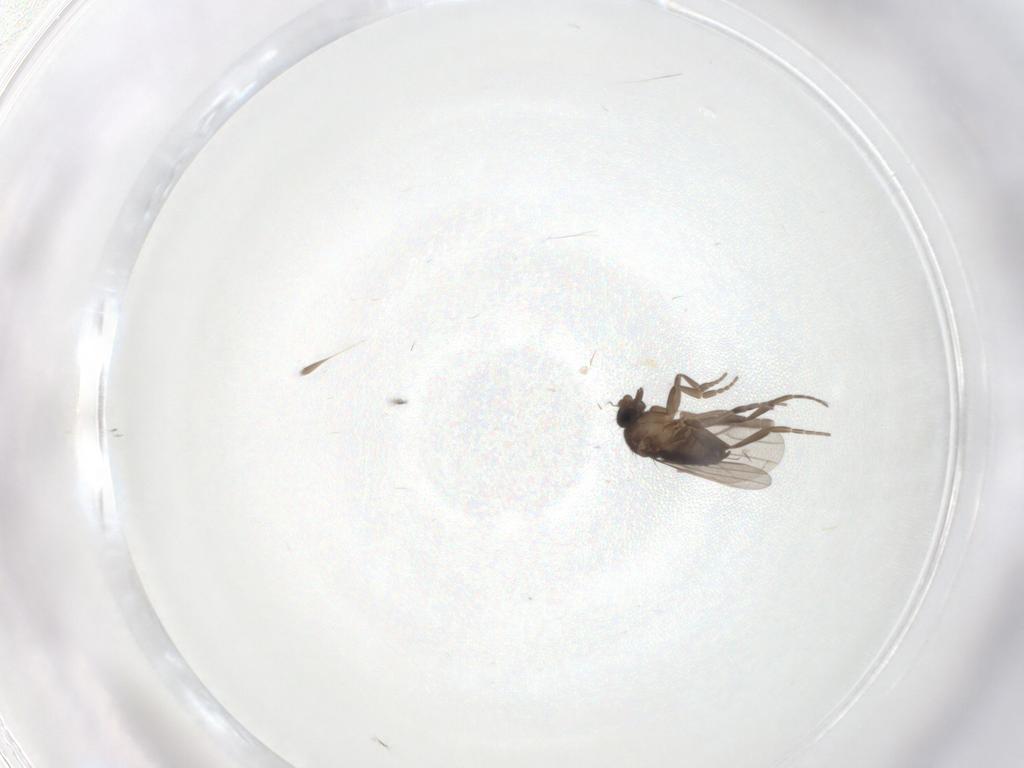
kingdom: Animalia
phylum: Arthropoda
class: Insecta
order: Diptera
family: Phoridae
